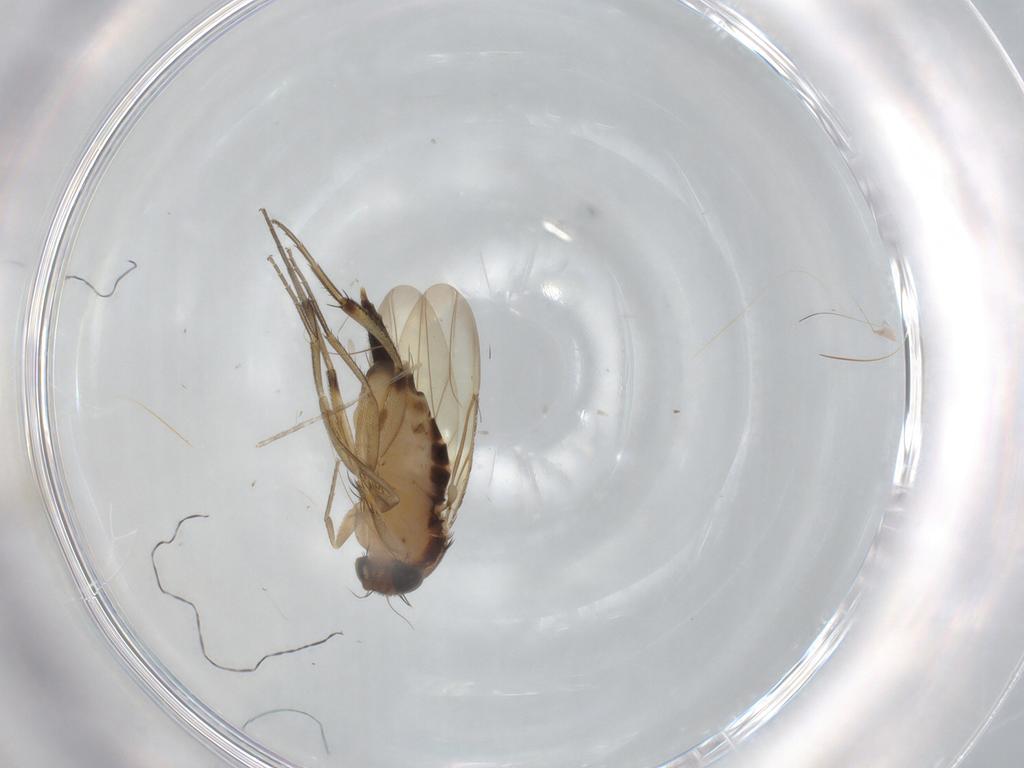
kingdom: Animalia
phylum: Arthropoda
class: Insecta
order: Diptera
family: Phoridae
